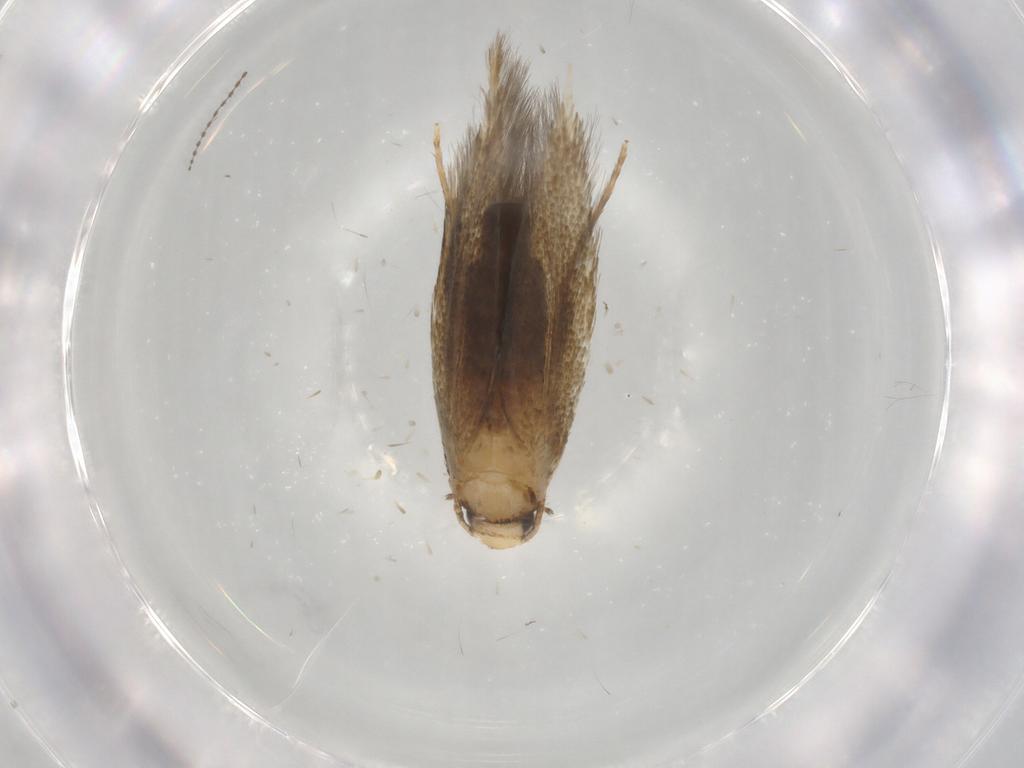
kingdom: Animalia
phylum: Arthropoda
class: Insecta
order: Lepidoptera
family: Tineidae
